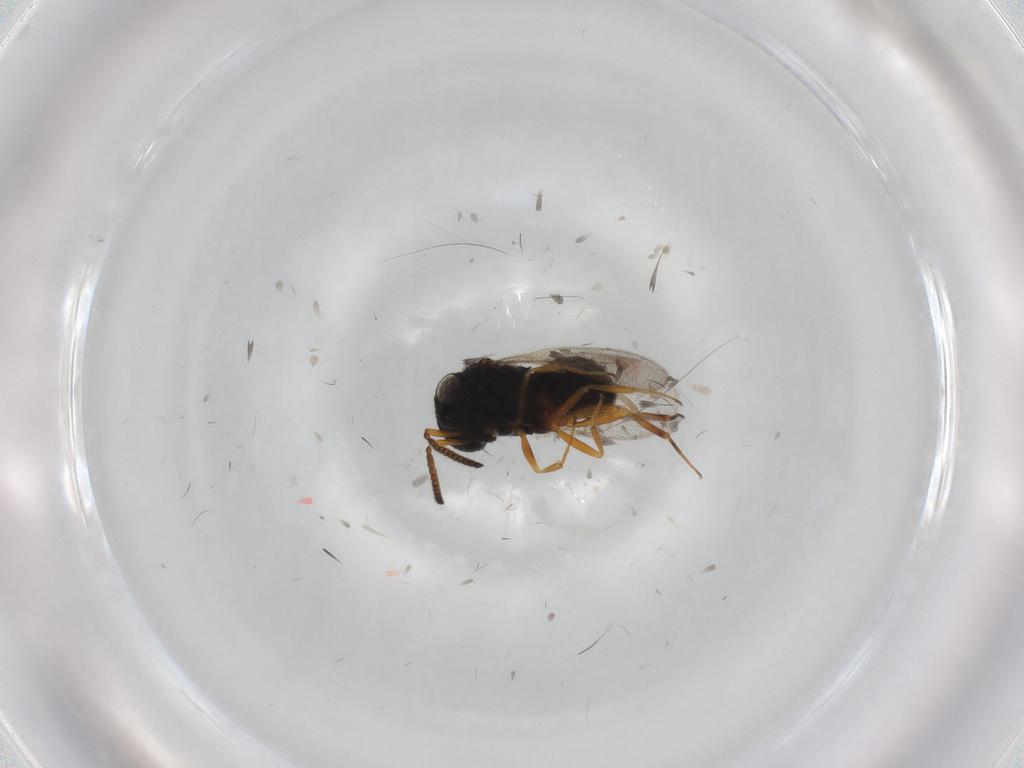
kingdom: Animalia
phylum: Arthropoda
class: Insecta
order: Hymenoptera
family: Scelionidae
